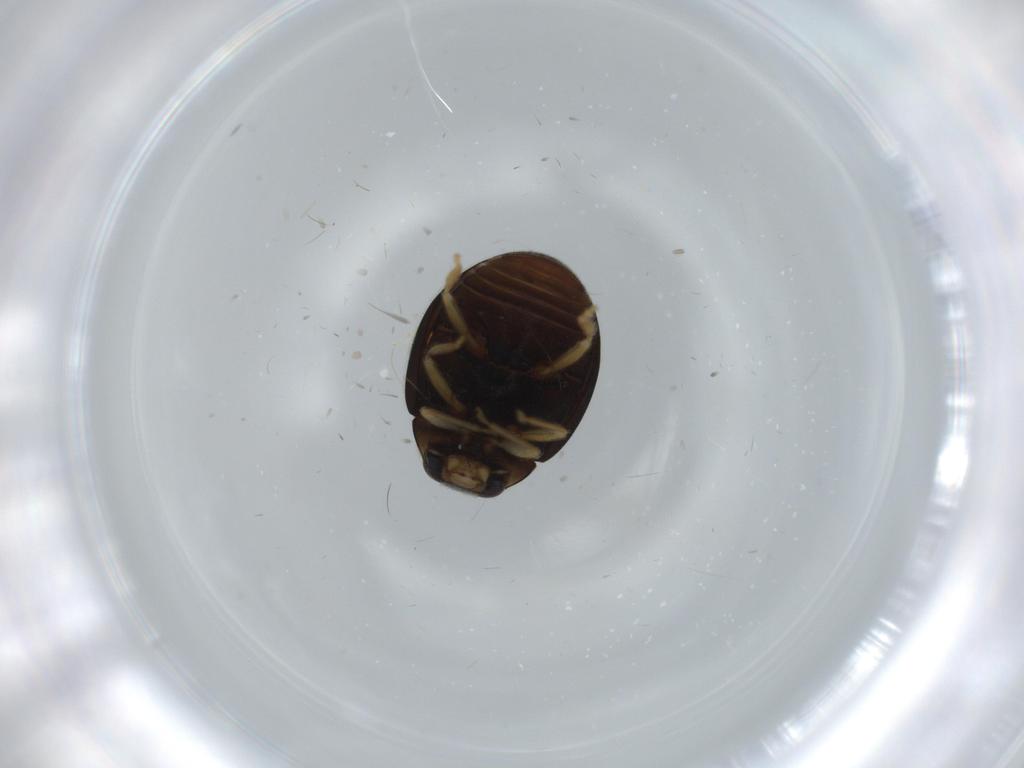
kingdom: Animalia
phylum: Arthropoda
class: Insecta
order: Coleoptera
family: Coccinellidae
